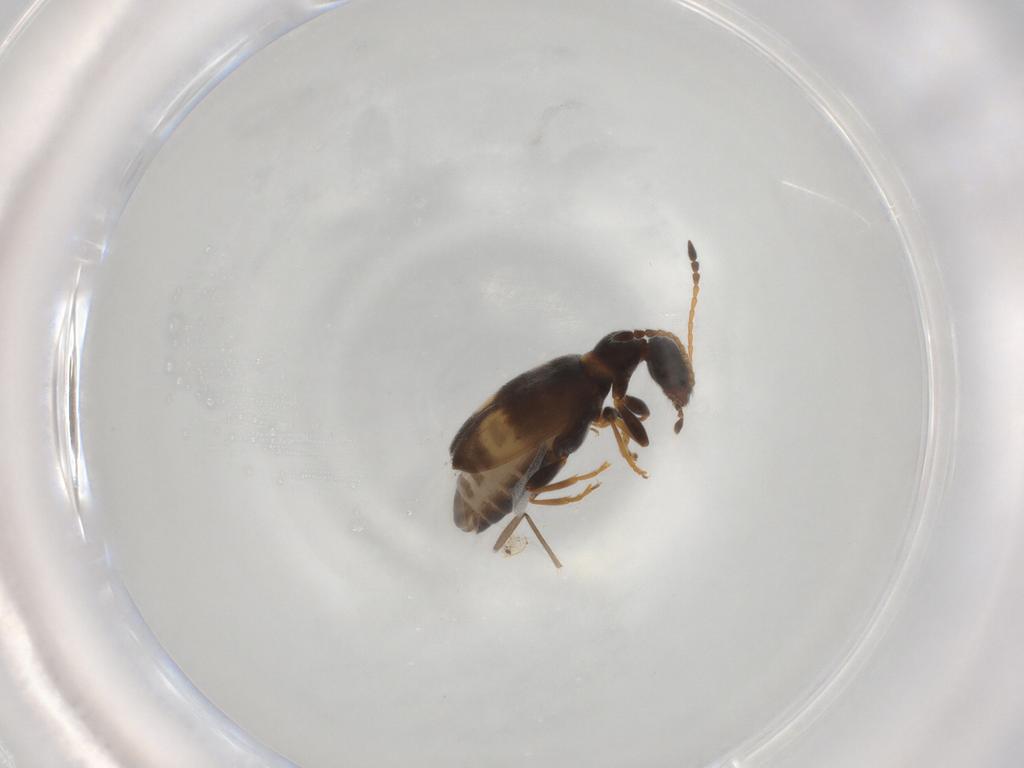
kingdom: Animalia
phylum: Arthropoda
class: Insecta
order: Coleoptera
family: Anthicidae
